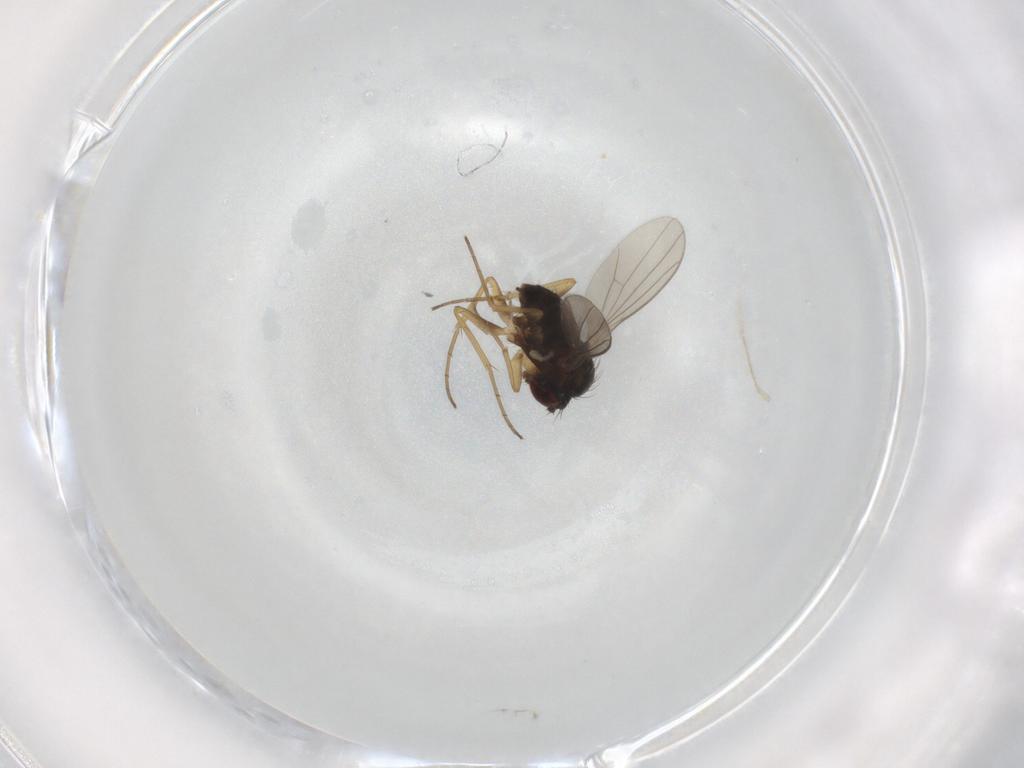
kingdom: Animalia
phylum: Arthropoda
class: Insecta
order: Diptera
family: Dolichopodidae
